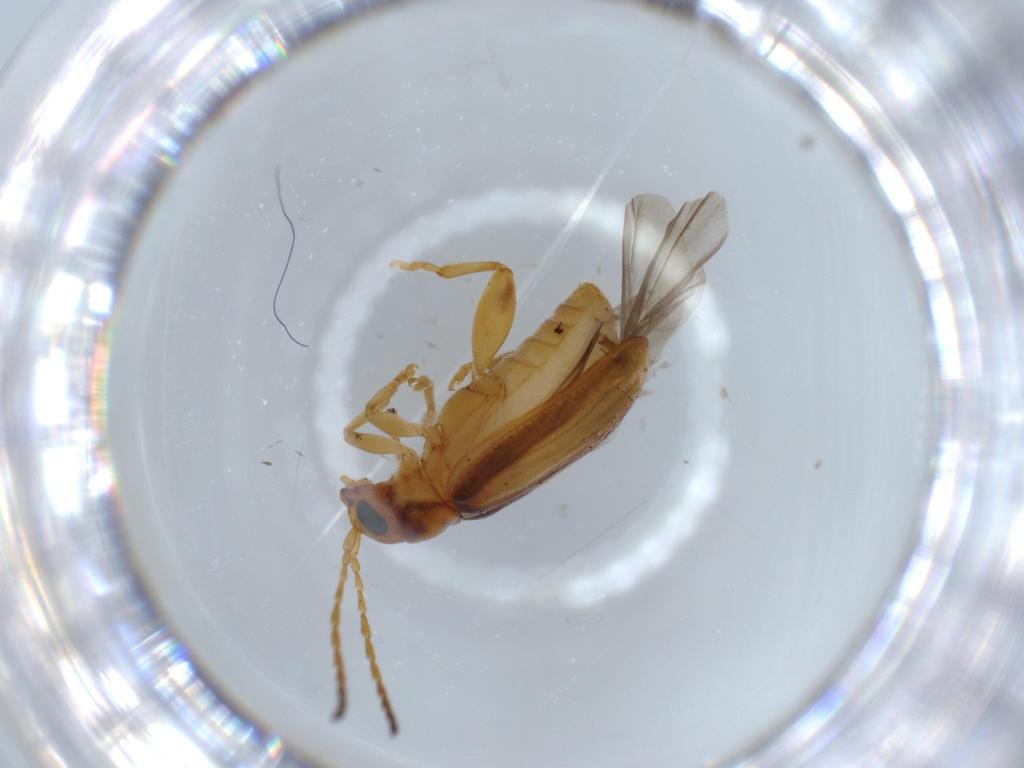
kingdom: Animalia
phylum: Arthropoda
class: Insecta
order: Coleoptera
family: Chrysomelidae
